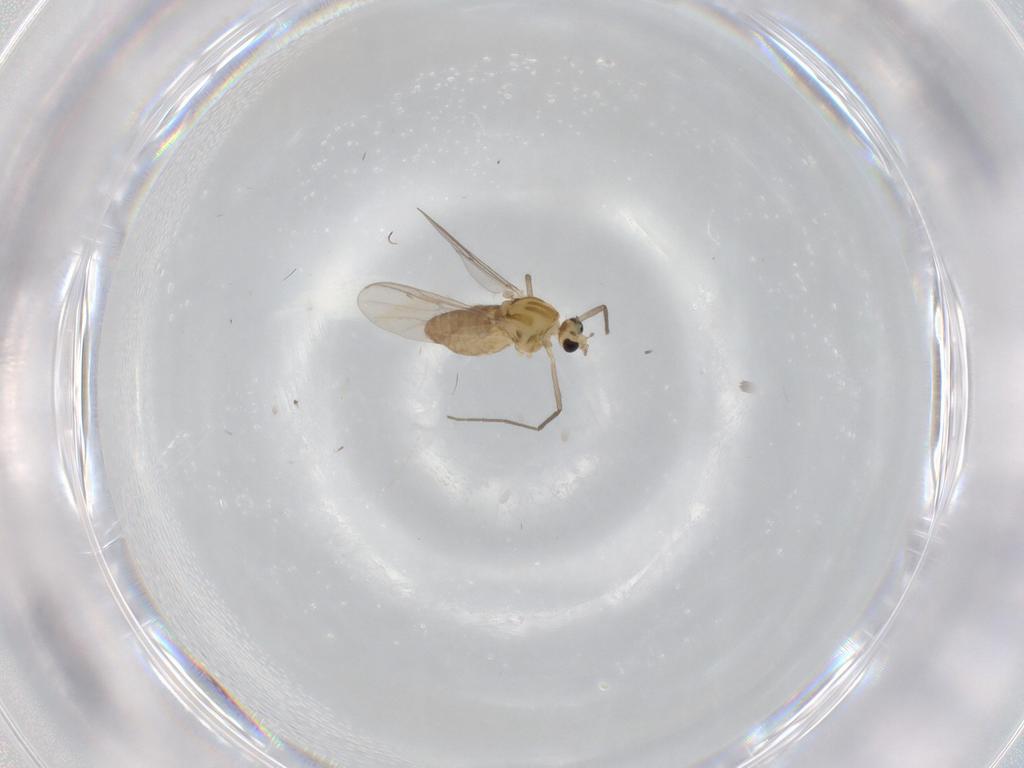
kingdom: Animalia
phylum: Arthropoda
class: Insecta
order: Diptera
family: Chironomidae
